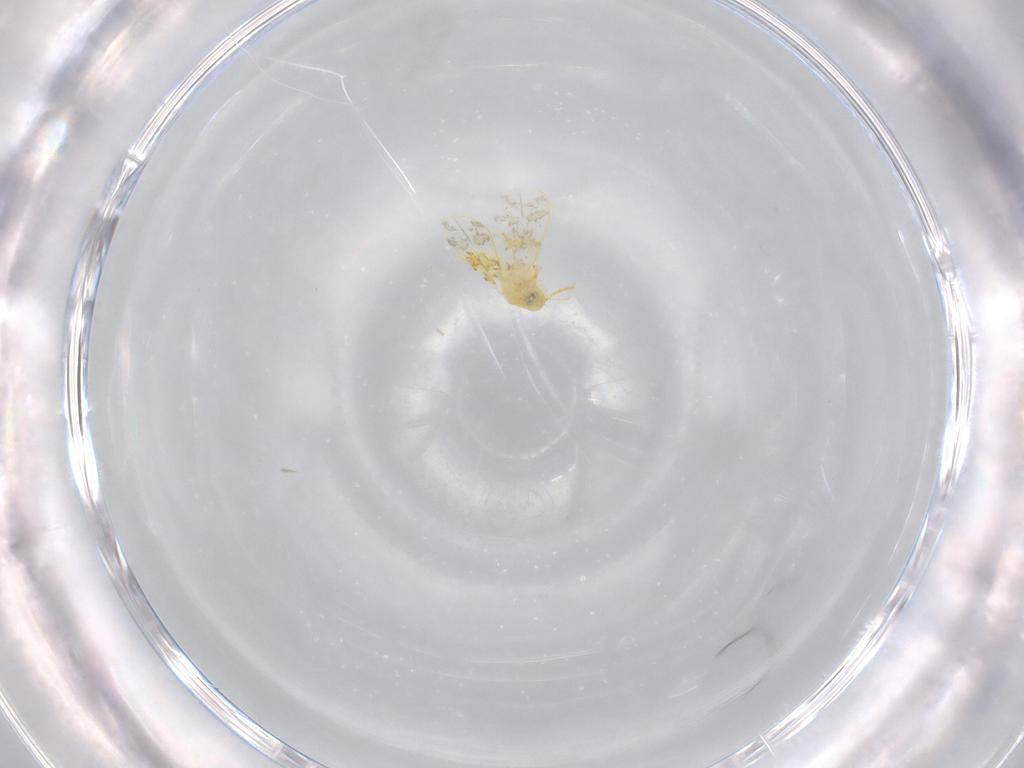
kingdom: Animalia
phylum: Arthropoda
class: Insecta
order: Hemiptera
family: Aleyrodidae
